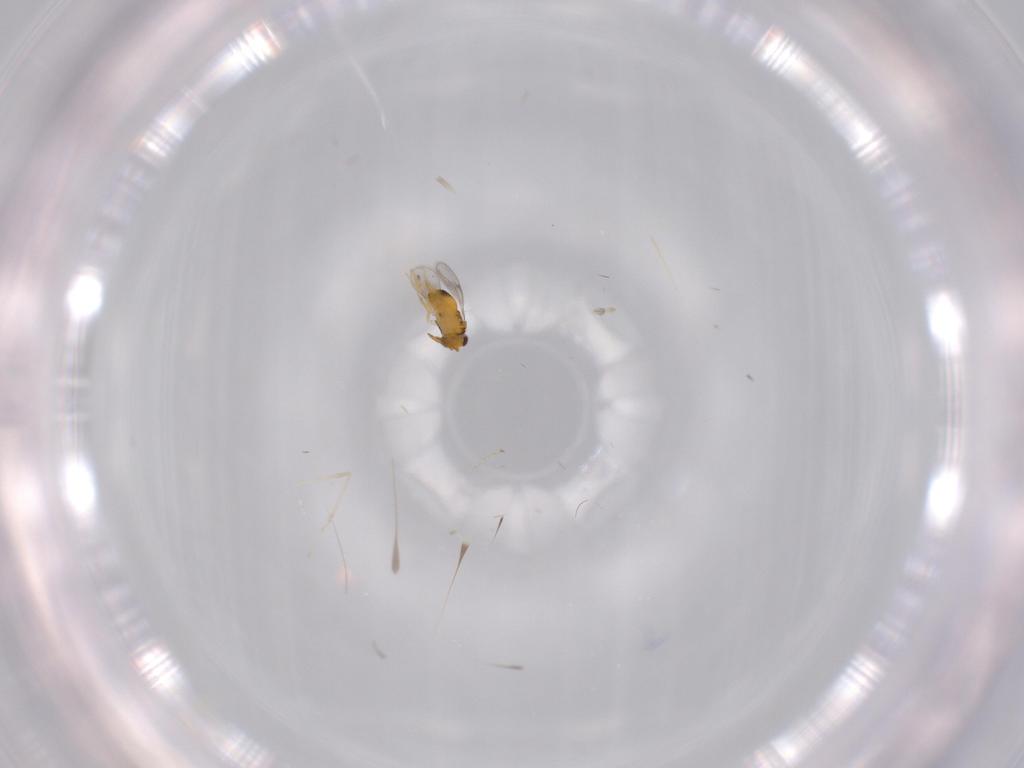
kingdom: Animalia
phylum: Arthropoda
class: Insecta
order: Hymenoptera
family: Aphelinidae
